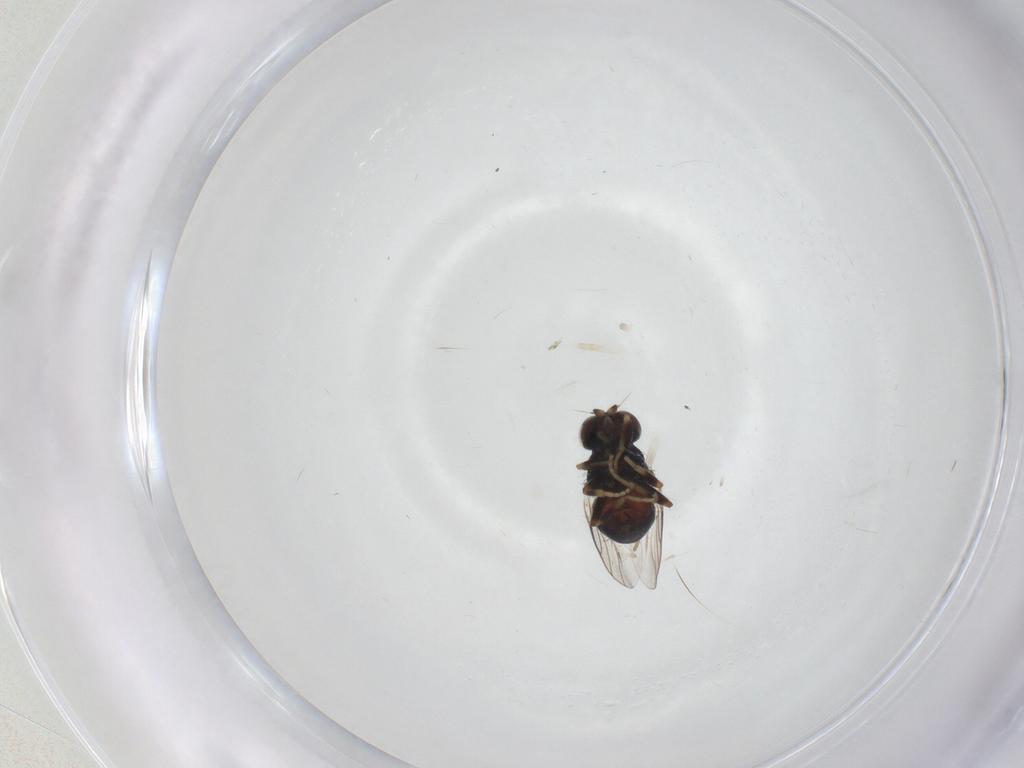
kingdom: Animalia
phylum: Arthropoda
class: Insecta
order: Diptera
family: Chloropidae
